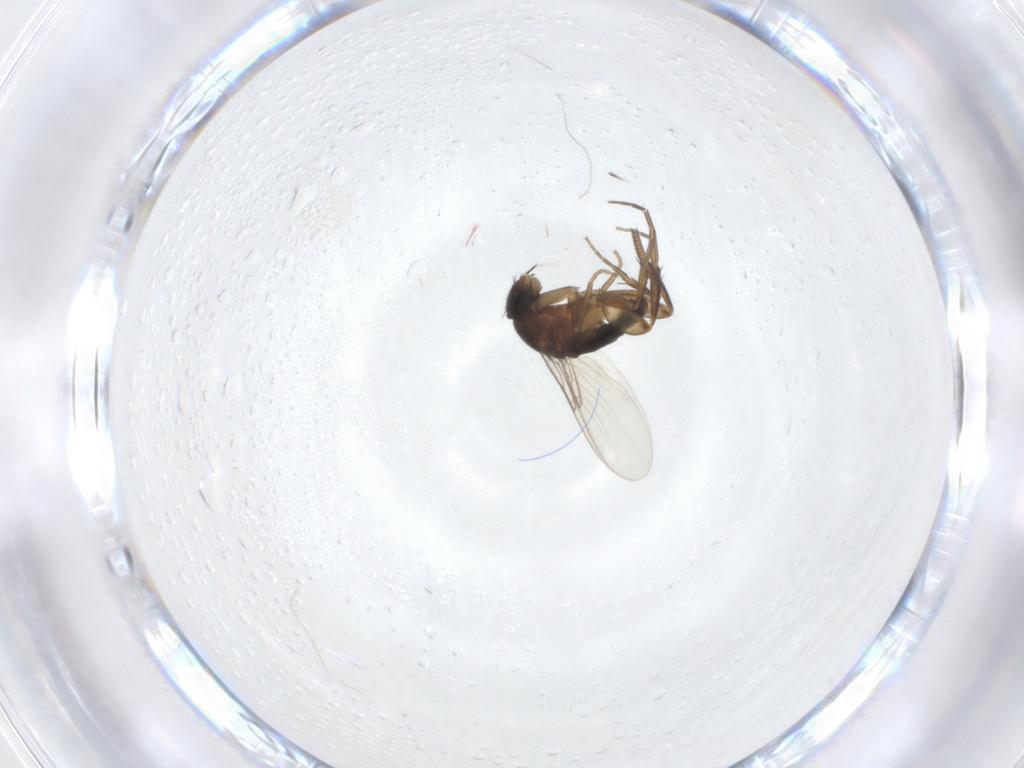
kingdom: Animalia
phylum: Arthropoda
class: Insecta
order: Diptera
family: Phoridae
